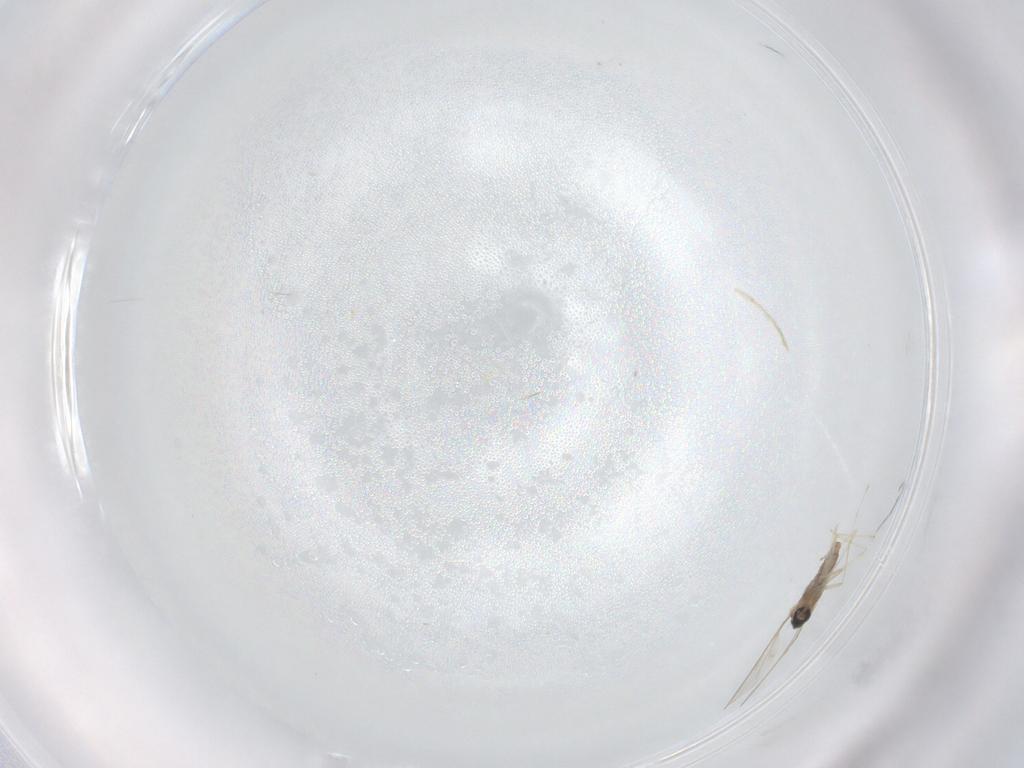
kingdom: Animalia
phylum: Arthropoda
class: Insecta
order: Diptera
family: Cecidomyiidae
